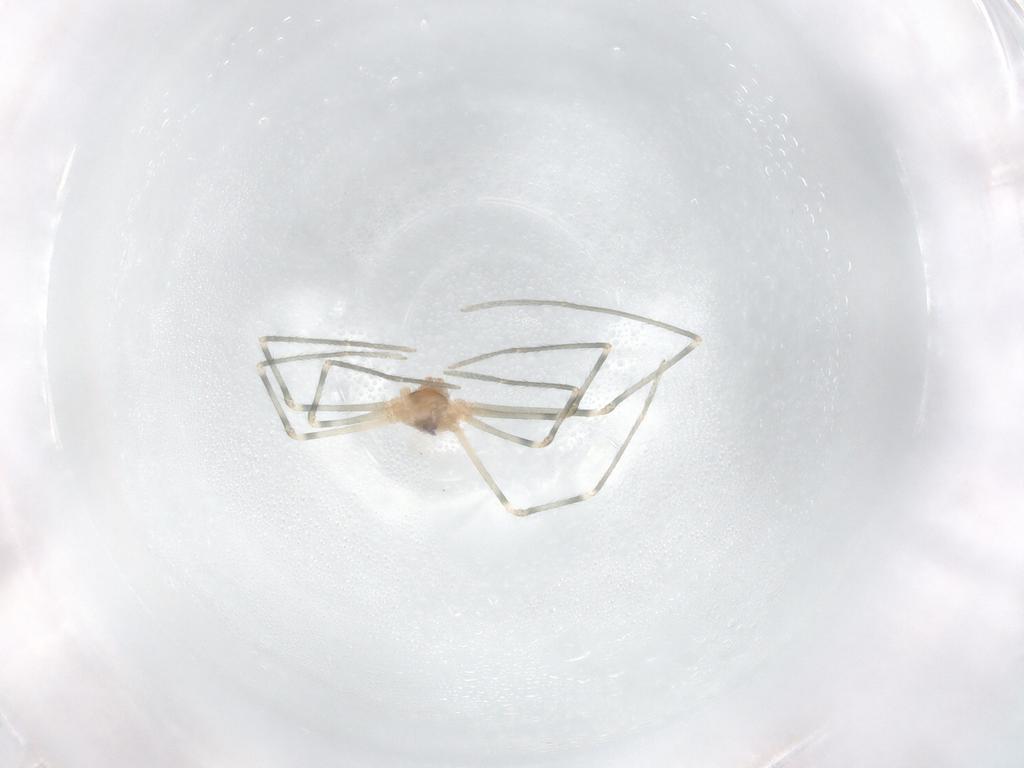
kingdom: Animalia
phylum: Arthropoda
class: Arachnida
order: Araneae
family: Pholcidae
